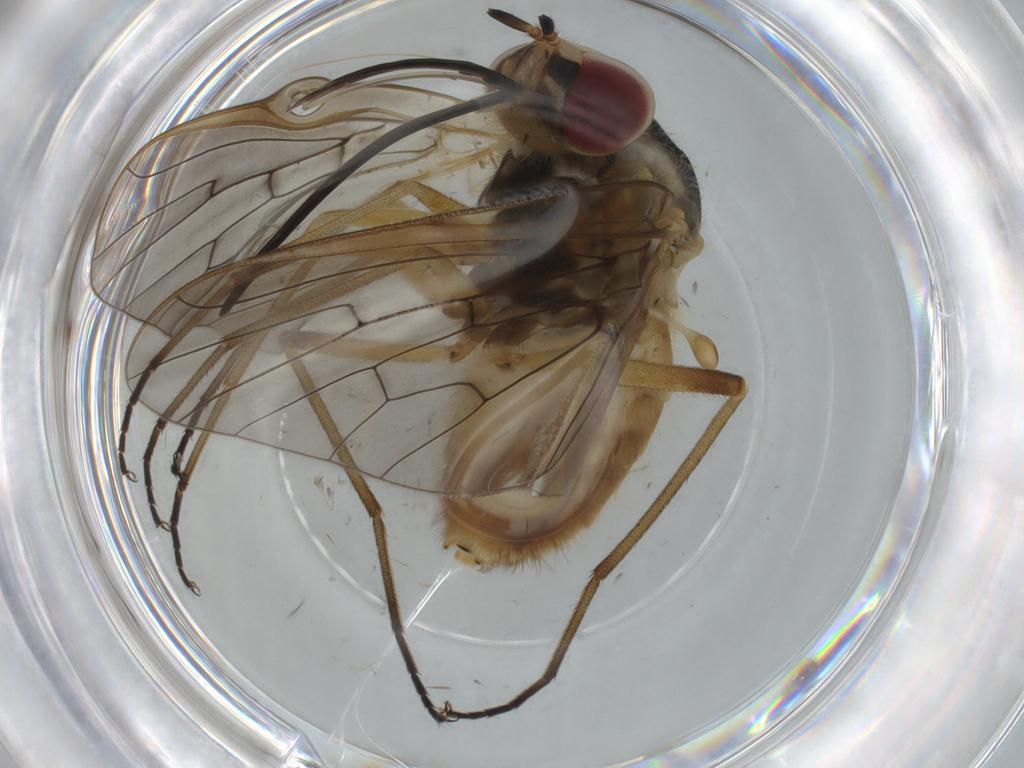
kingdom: Animalia
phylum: Arthropoda
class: Insecta
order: Diptera
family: Bombyliidae
